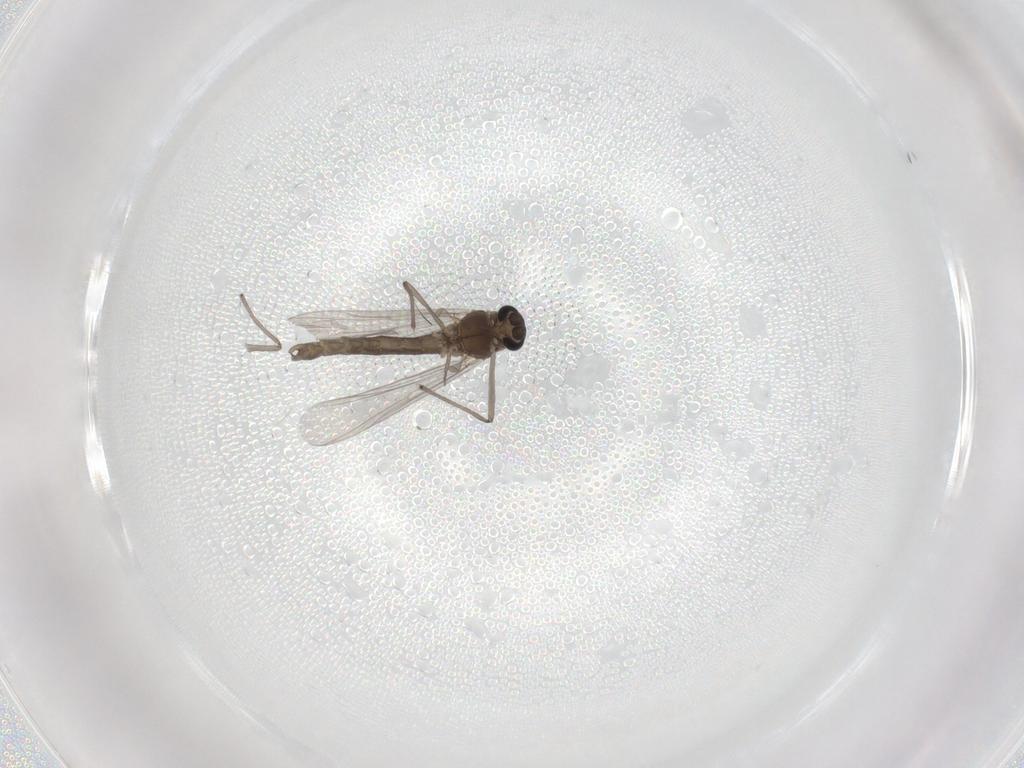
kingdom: Animalia
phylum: Arthropoda
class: Insecta
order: Diptera
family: Chironomidae
